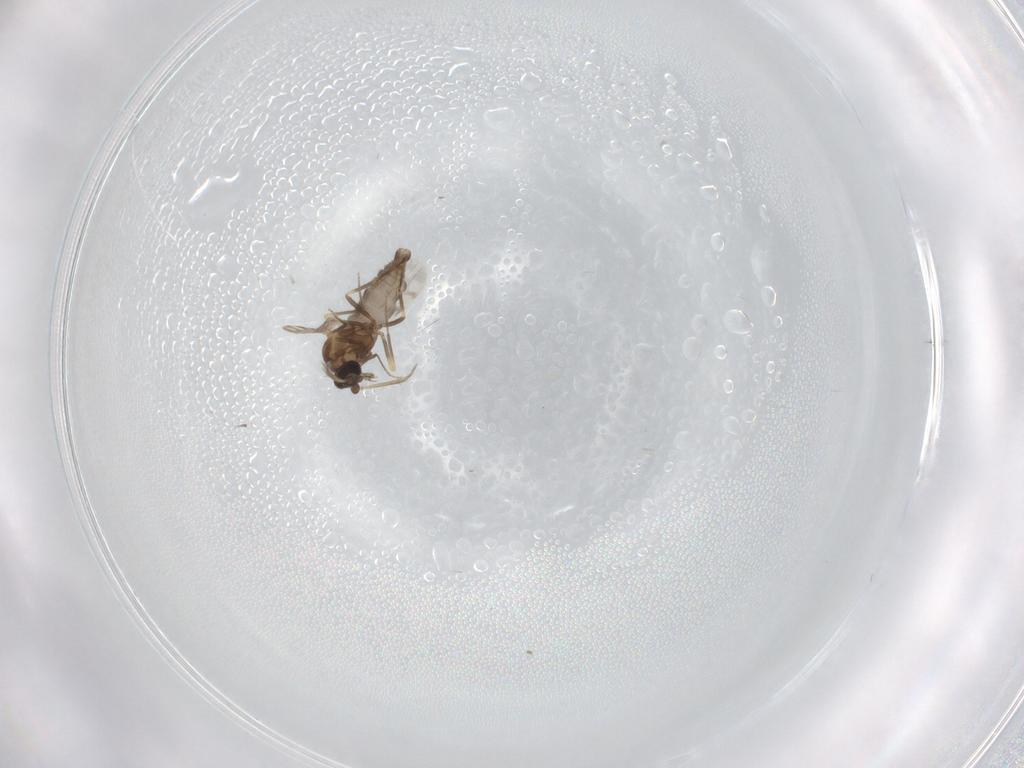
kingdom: Animalia
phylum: Arthropoda
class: Insecta
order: Diptera
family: Ceratopogonidae
